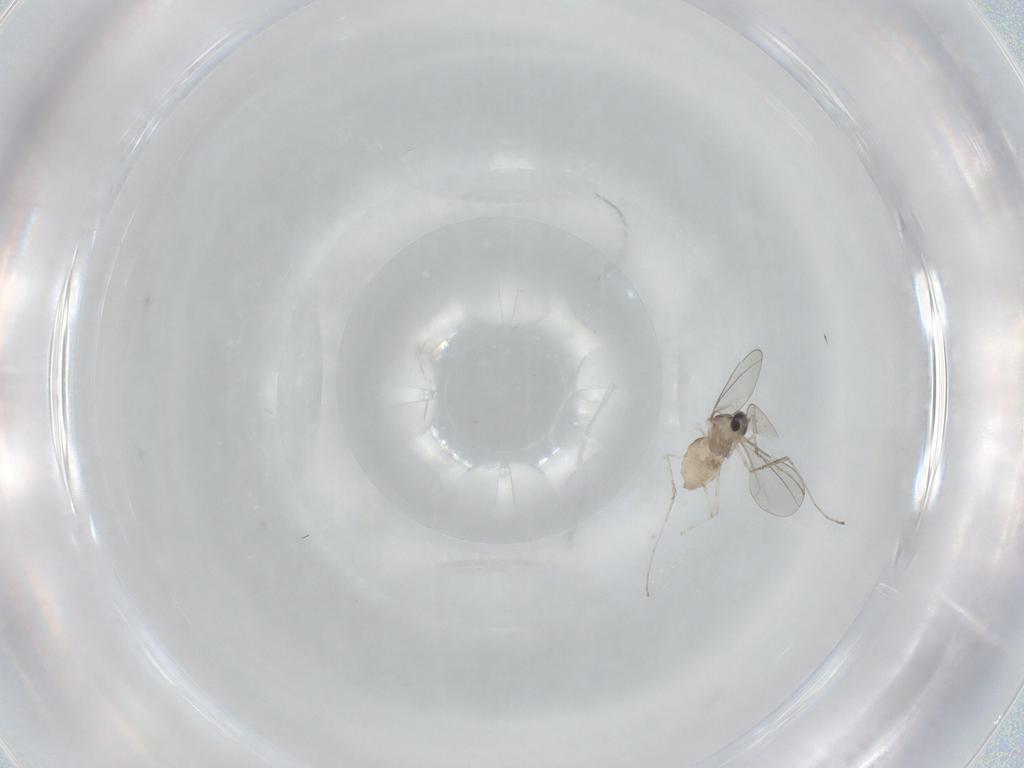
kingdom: Animalia
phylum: Arthropoda
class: Insecta
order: Diptera
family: Cecidomyiidae
